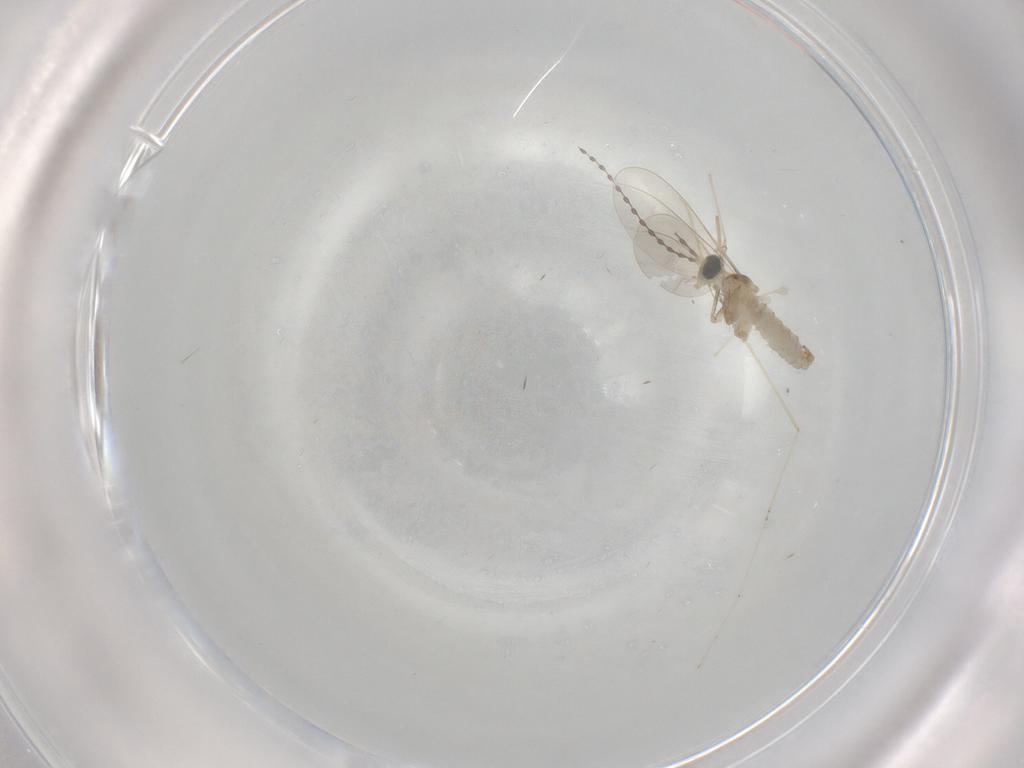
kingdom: Animalia
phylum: Arthropoda
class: Insecta
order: Diptera
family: Cecidomyiidae
